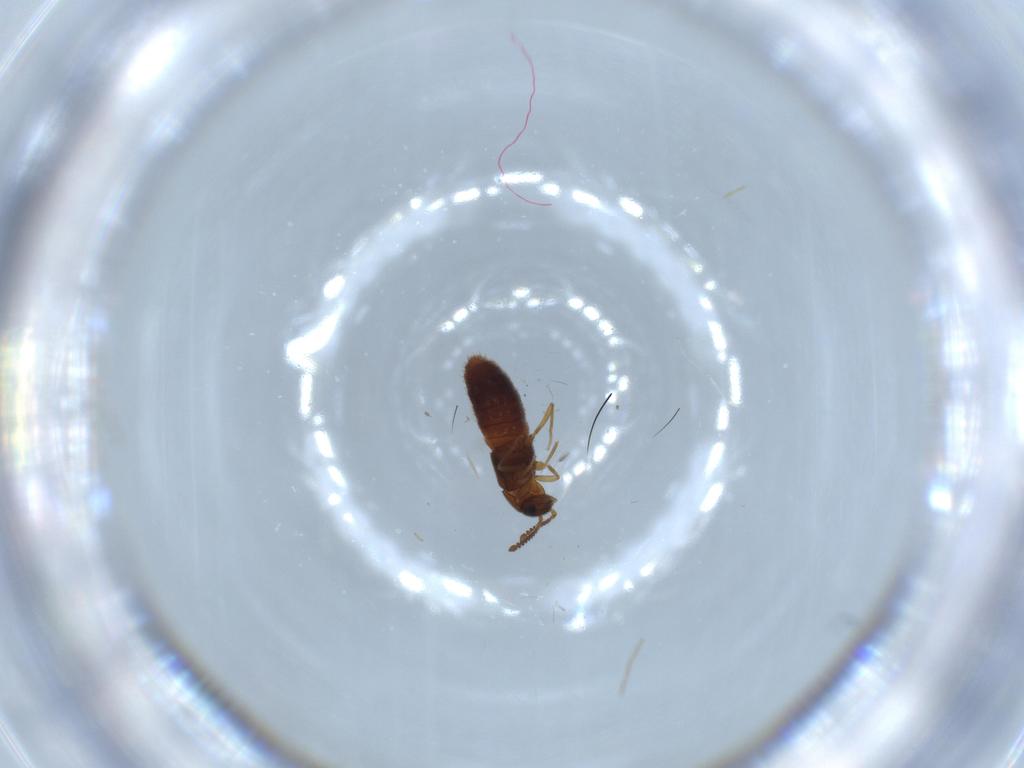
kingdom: Animalia
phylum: Arthropoda
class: Insecta
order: Coleoptera
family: Staphylinidae
